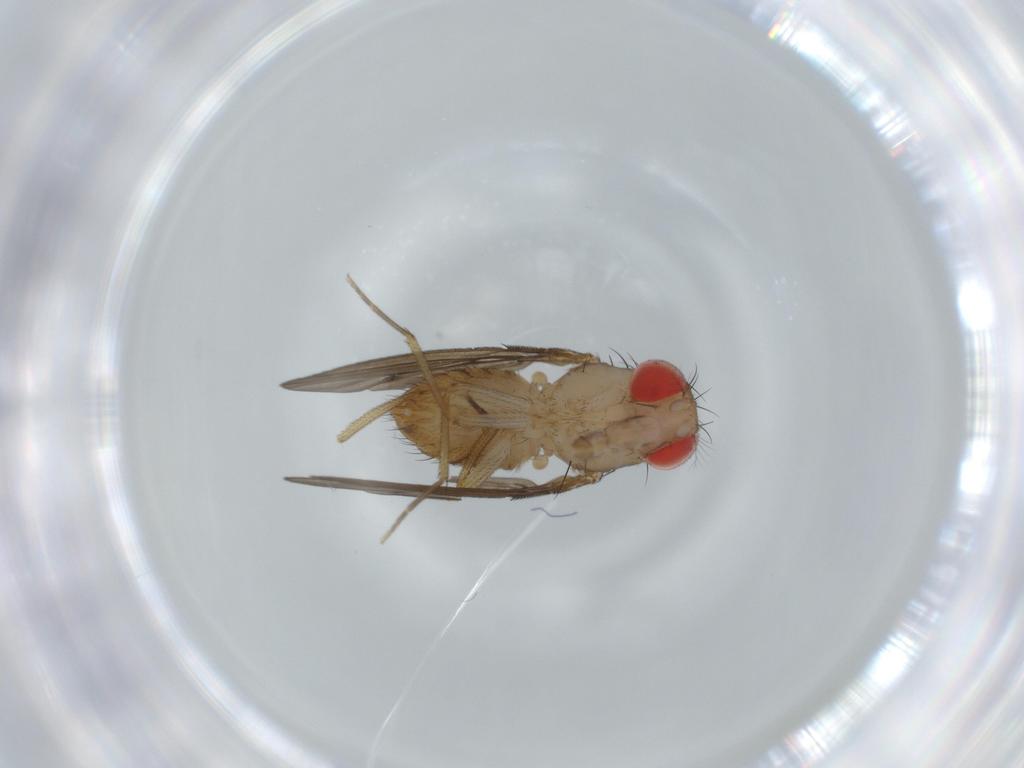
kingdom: Animalia
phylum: Arthropoda
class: Insecta
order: Diptera
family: Drosophilidae
